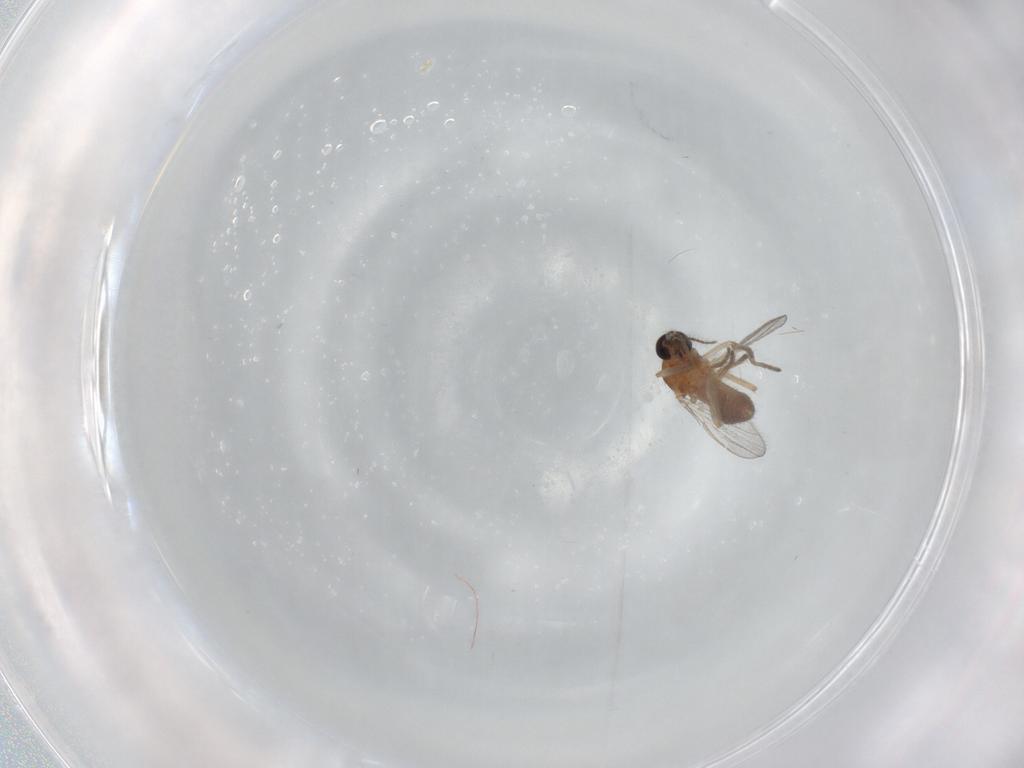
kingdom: Animalia
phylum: Arthropoda
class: Insecta
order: Diptera
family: Ceratopogonidae
